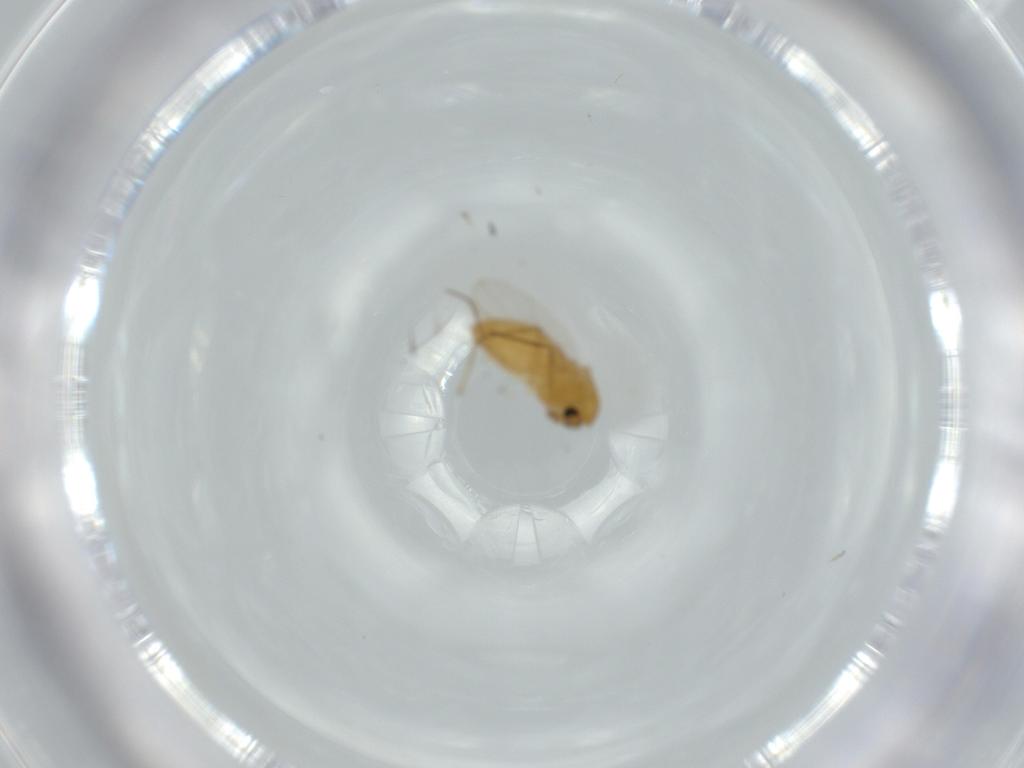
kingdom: Animalia
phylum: Arthropoda
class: Insecta
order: Diptera
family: Chironomidae
